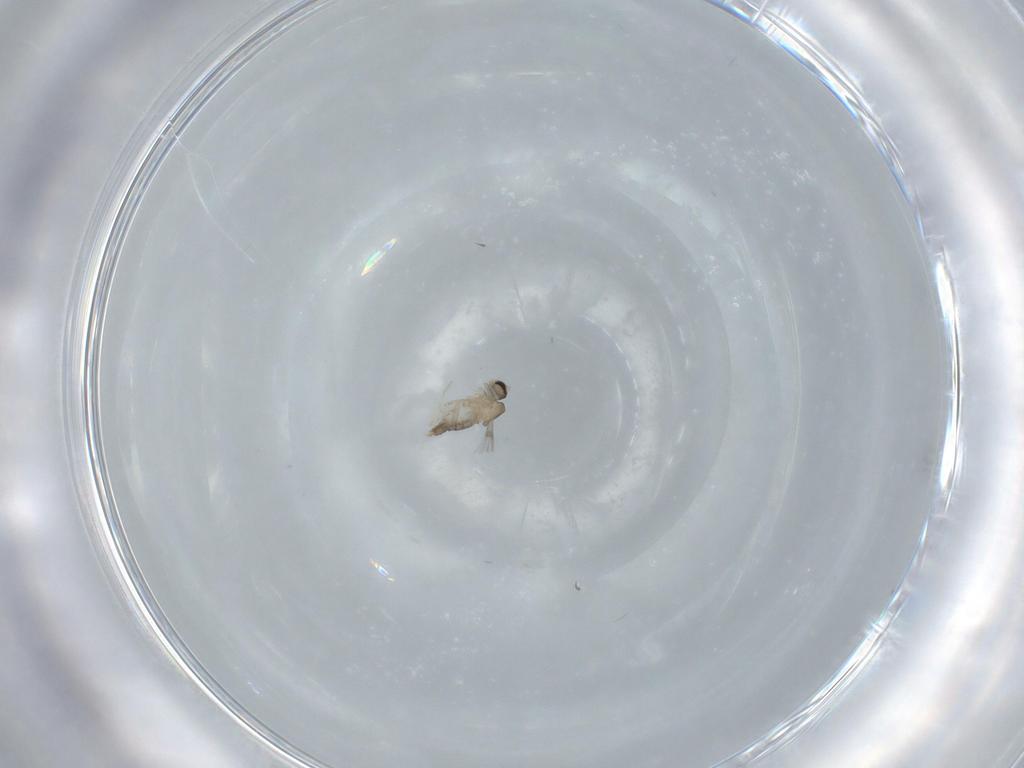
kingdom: Animalia
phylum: Arthropoda
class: Insecta
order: Diptera
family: Cecidomyiidae
